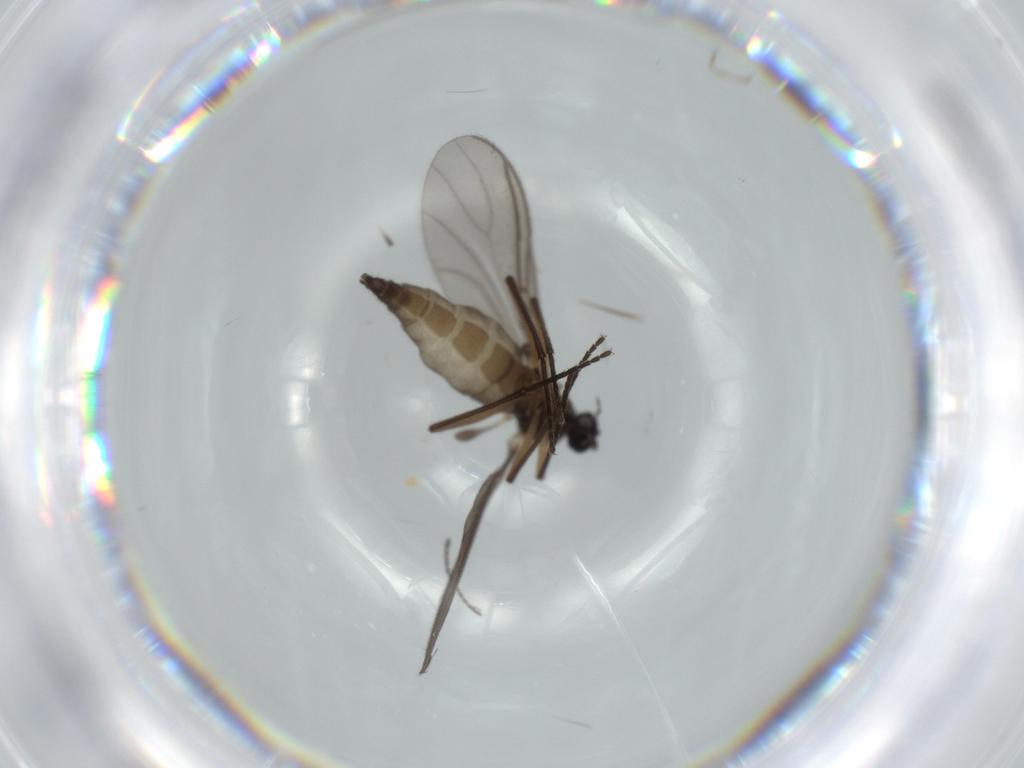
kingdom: Animalia
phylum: Arthropoda
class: Insecta
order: Diptera
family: Sciaridae
